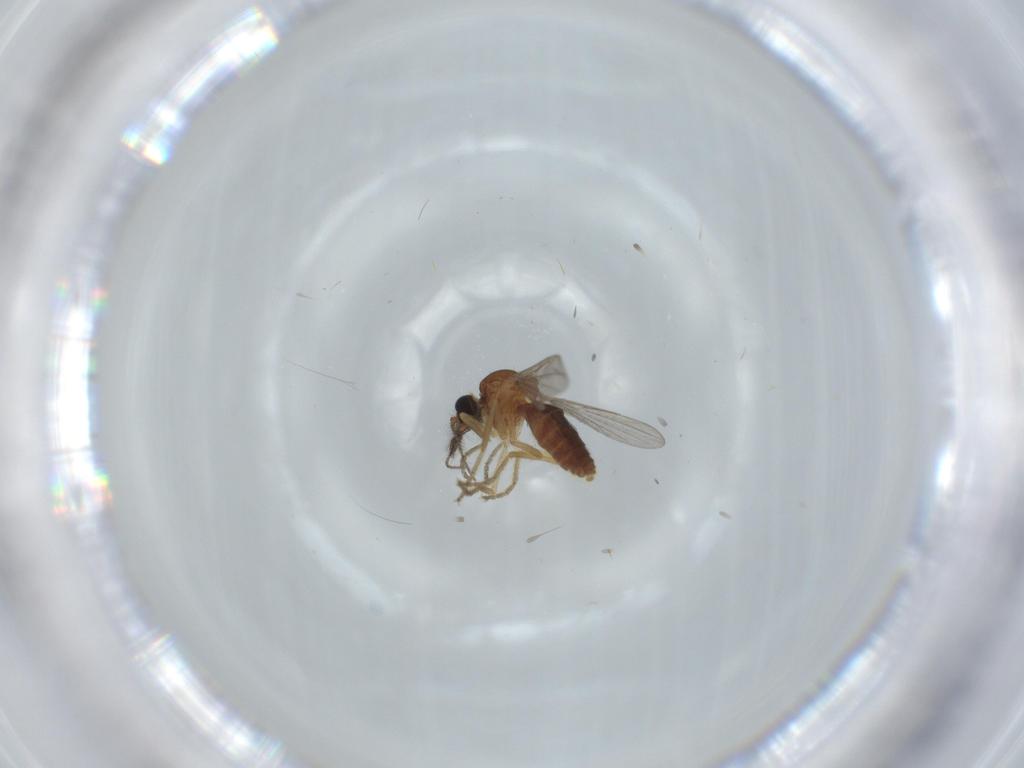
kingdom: Animalia
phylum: Arthropoda
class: Insecta
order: Diptera
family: Ceratopogonidae
